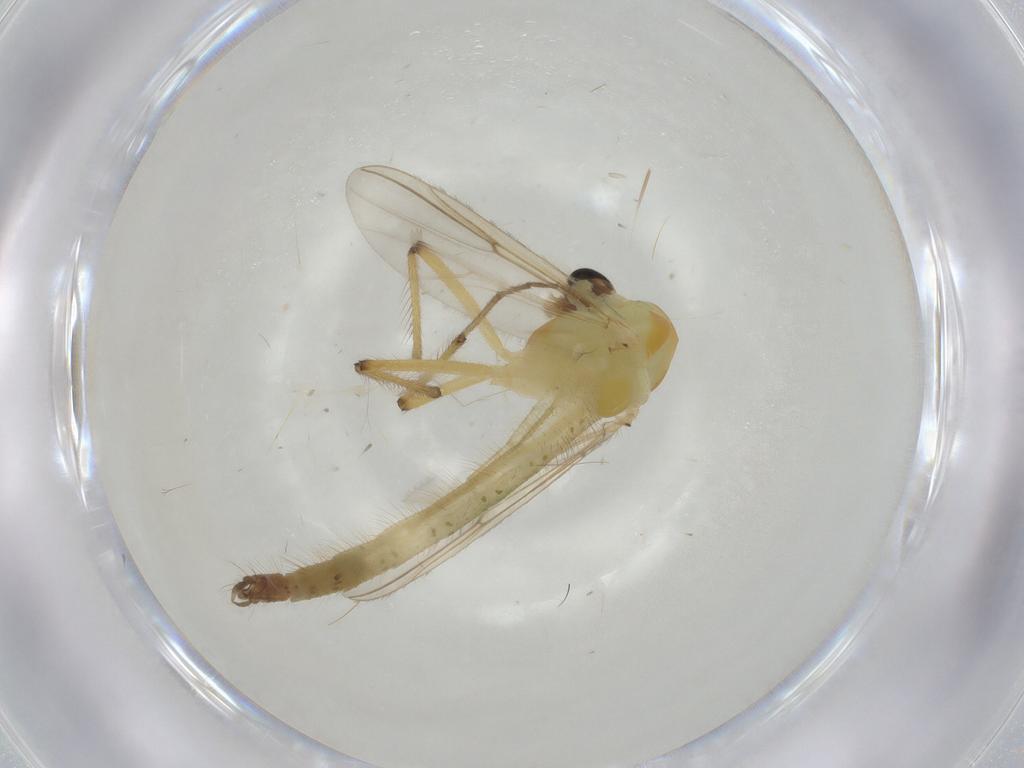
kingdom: Animalia
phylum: Arthropoda
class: Insecta
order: Diptera
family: Chironomidae
